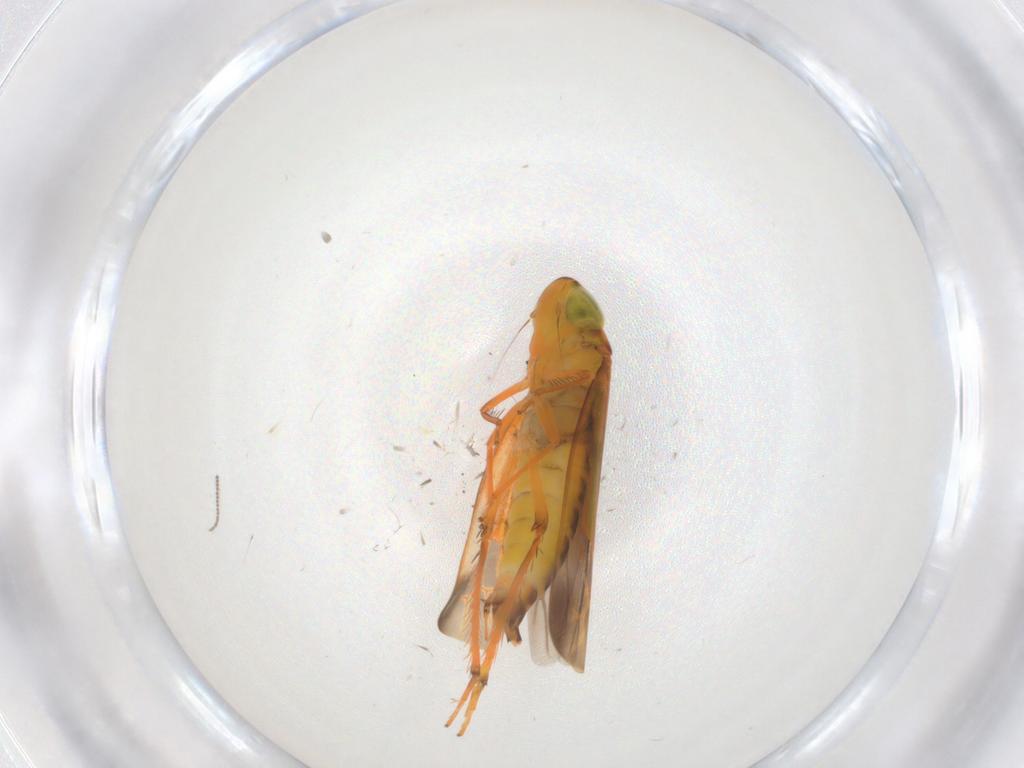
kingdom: Animalia
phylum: Arthropoda
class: Insecta
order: Hemiptera
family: Cicadellidae
